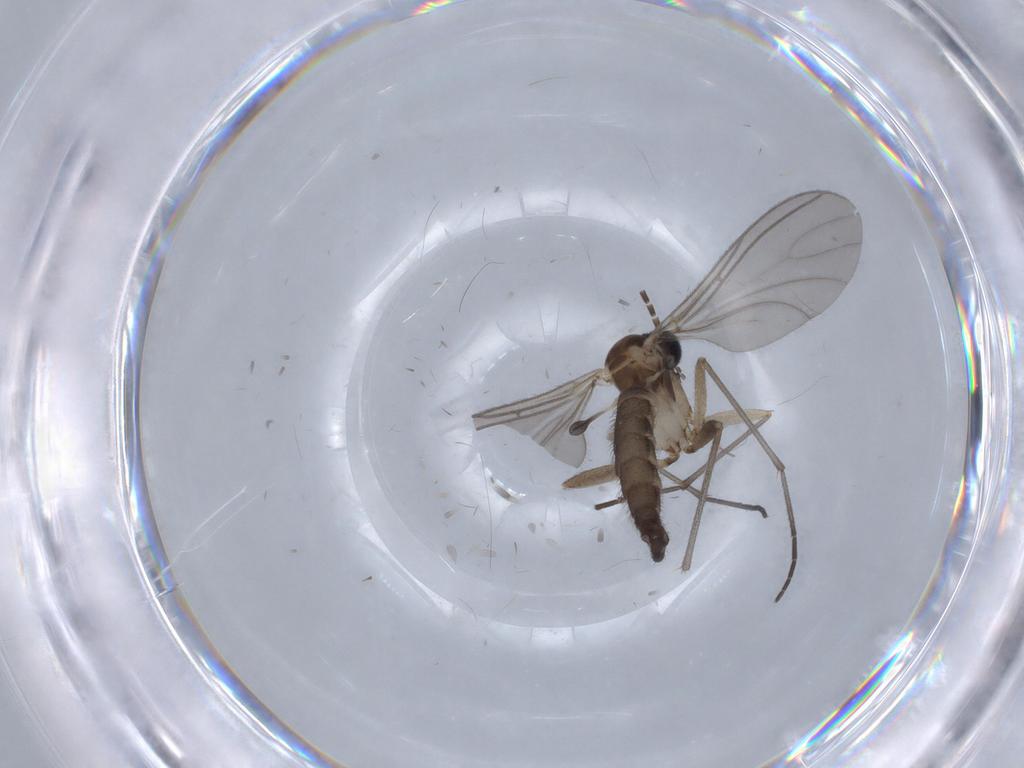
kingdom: Animalia
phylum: Arthropoda
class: Insecta
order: Diptera
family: Sciaridae
